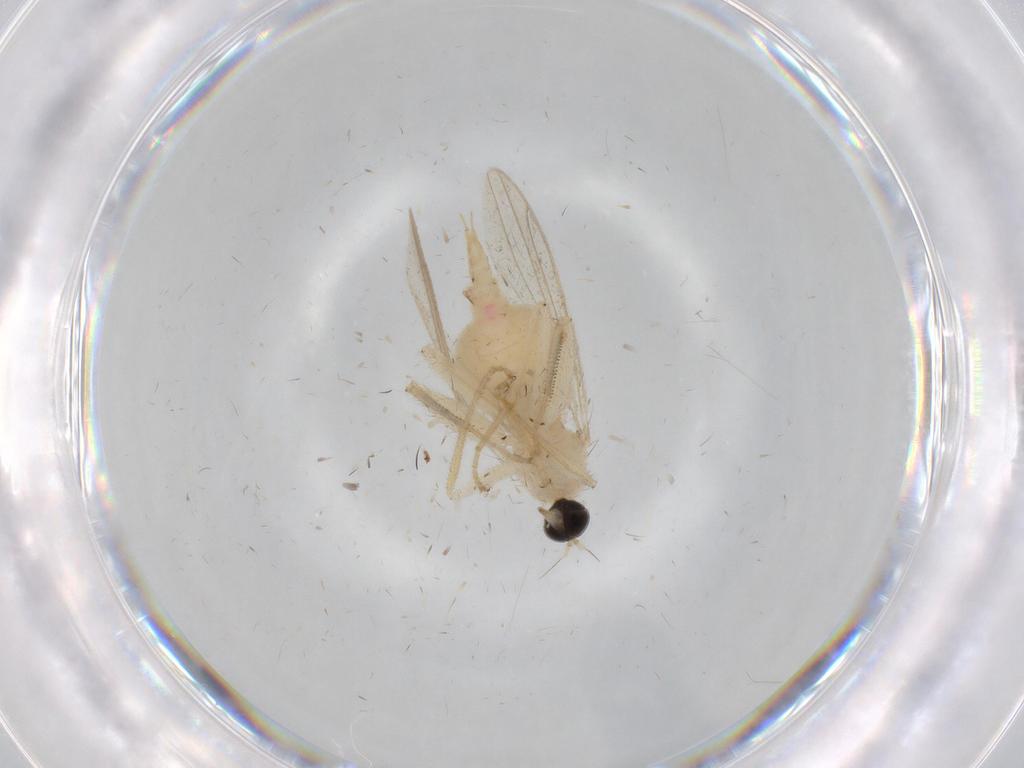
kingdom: Animalia
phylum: Arthropoda
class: Insecta
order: Diptera
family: Hybotidae
